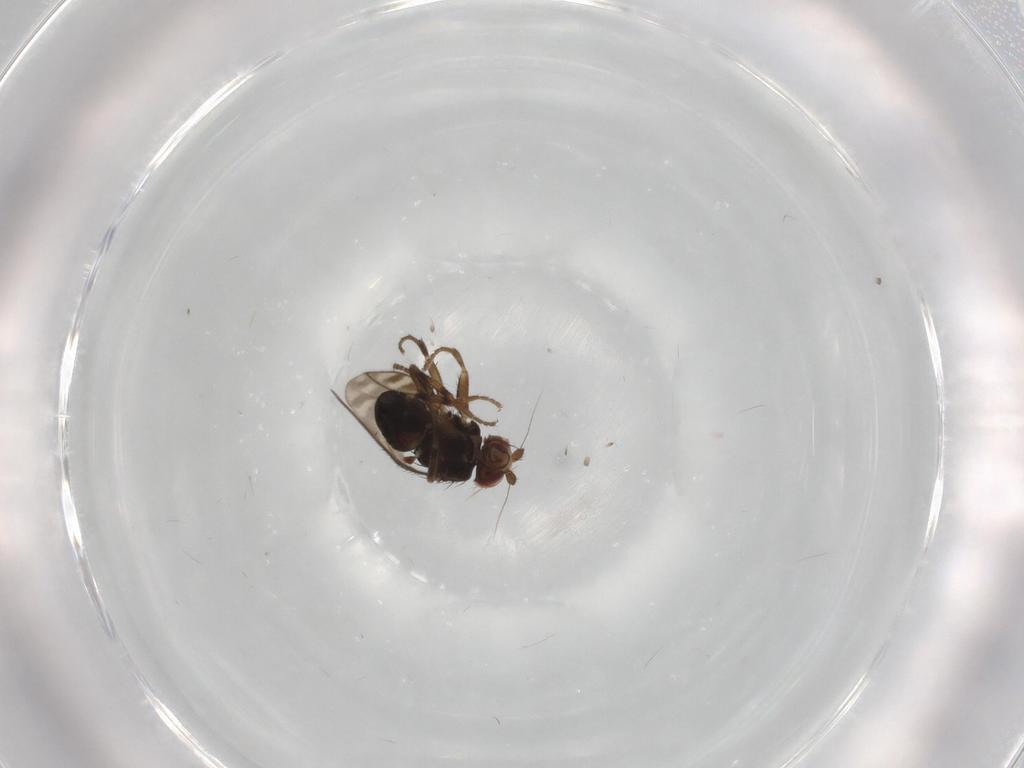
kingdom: Animalia
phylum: Arthropoda
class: Insecta
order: Diptera
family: Sphaeroceridae
